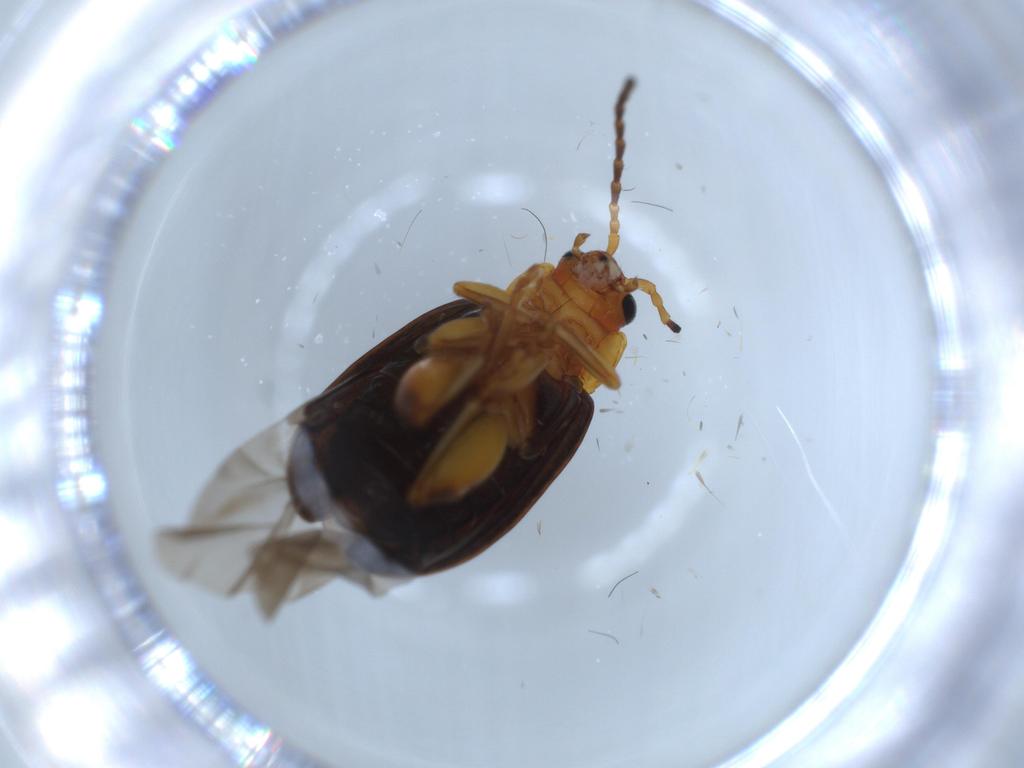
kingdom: Animalia
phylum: Arthropoda
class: Insecta
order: Coleoptera
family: Chrysomelidae
